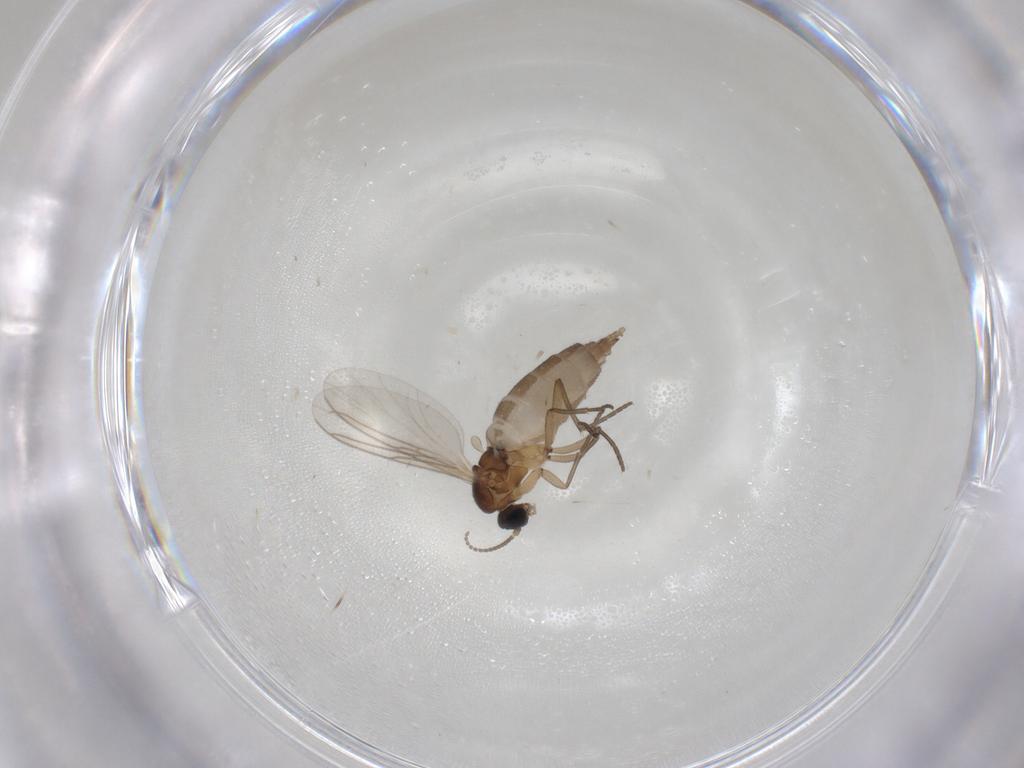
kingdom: Animalia
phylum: Arthropoda
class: Insecta
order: Diptera
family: Sciaridae
